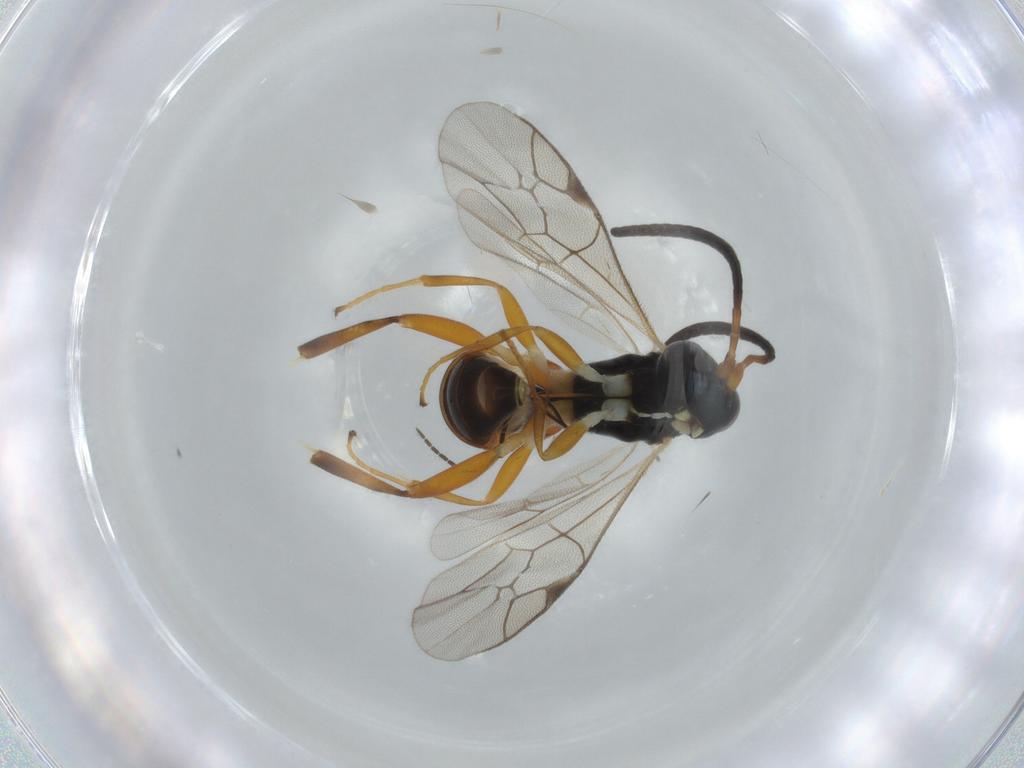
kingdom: Animalia
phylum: Arthropoda
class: Insecta
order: Hymenoptera
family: Ichneumonidae
